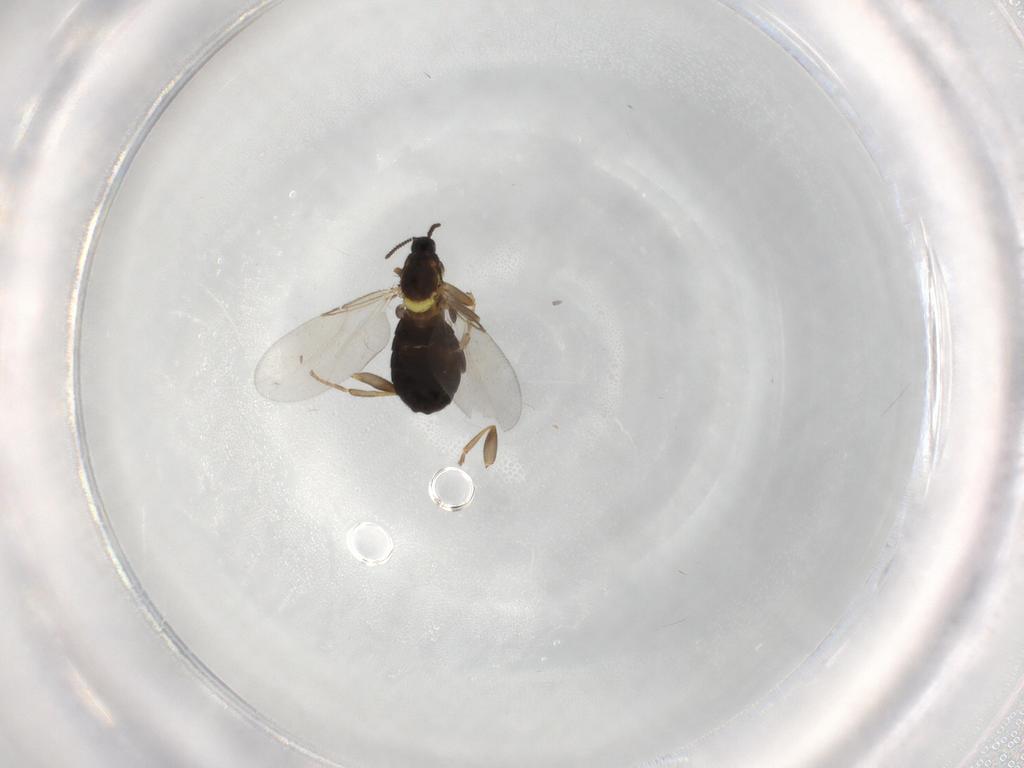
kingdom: Animalia
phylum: Arthropoda
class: Insecta
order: Diptera
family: Scatopsidae
